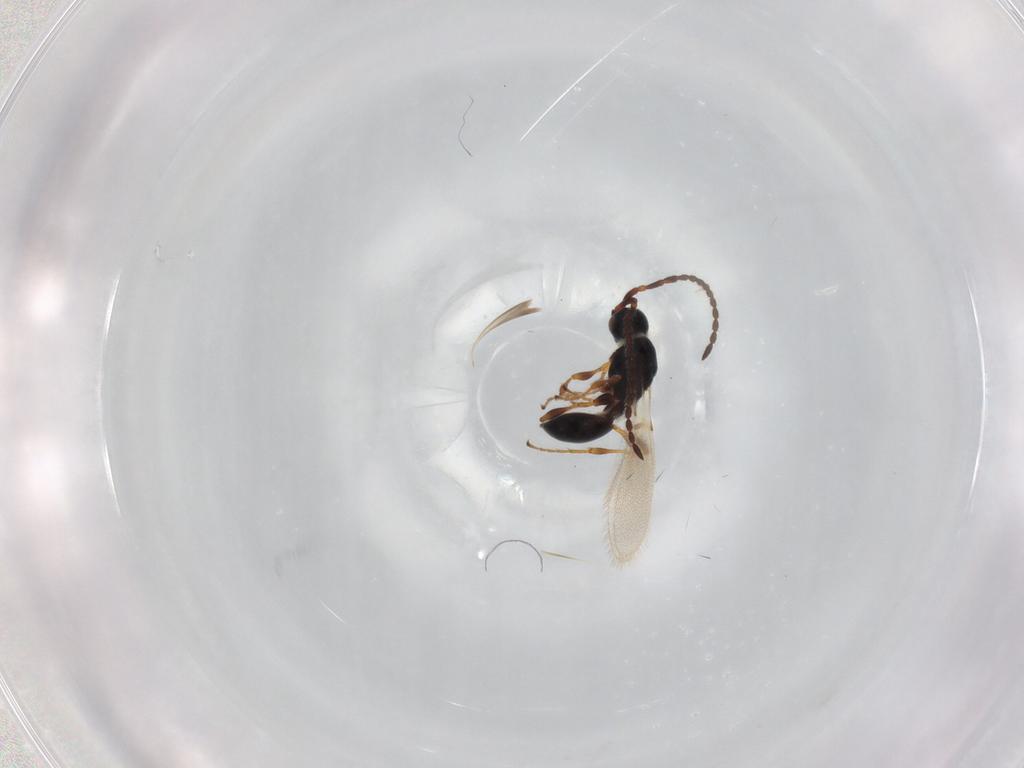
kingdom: Animalia
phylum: Arthropoda
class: Insecta
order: Hymenoptera
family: Diapriidae
